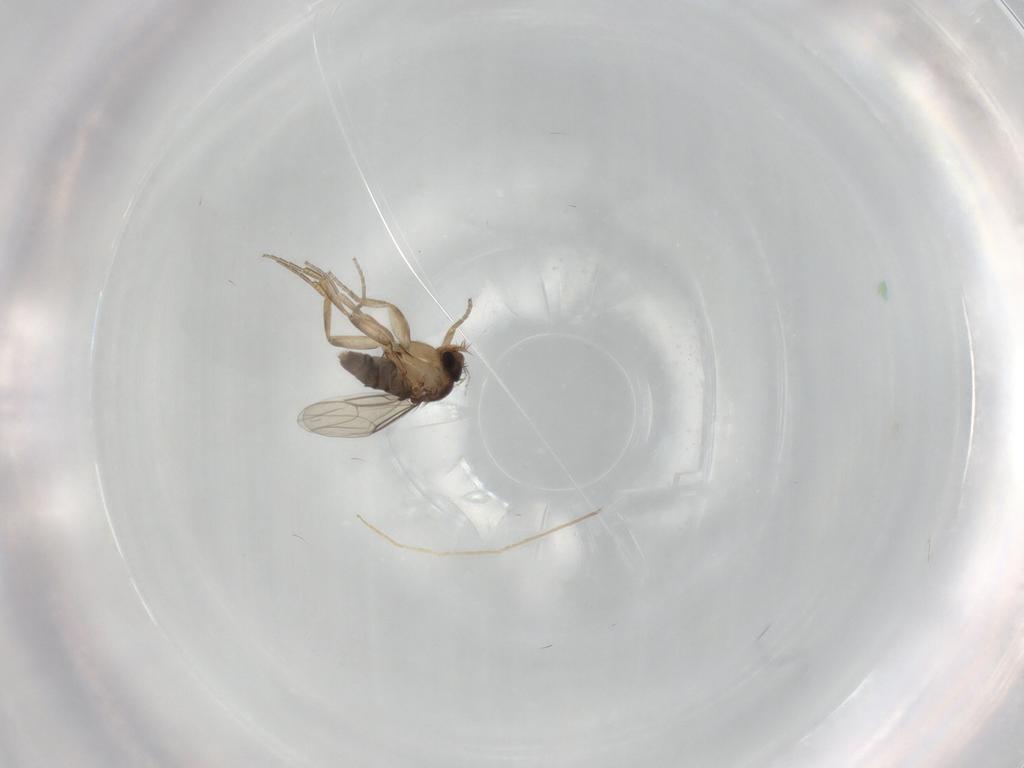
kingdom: Animalia
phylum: Arthropoda
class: Insecta
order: Diptera
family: Phoridae
